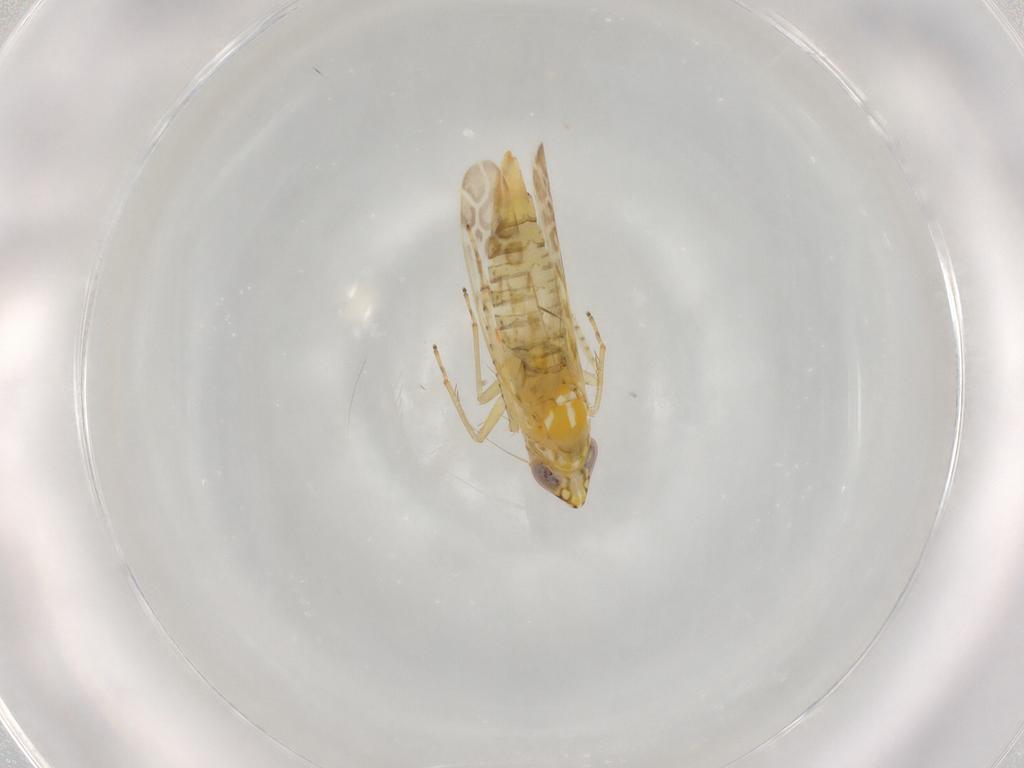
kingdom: Animalia
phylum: Arthropoda
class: Insecta
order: Hemiptera
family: Cicadellidae
